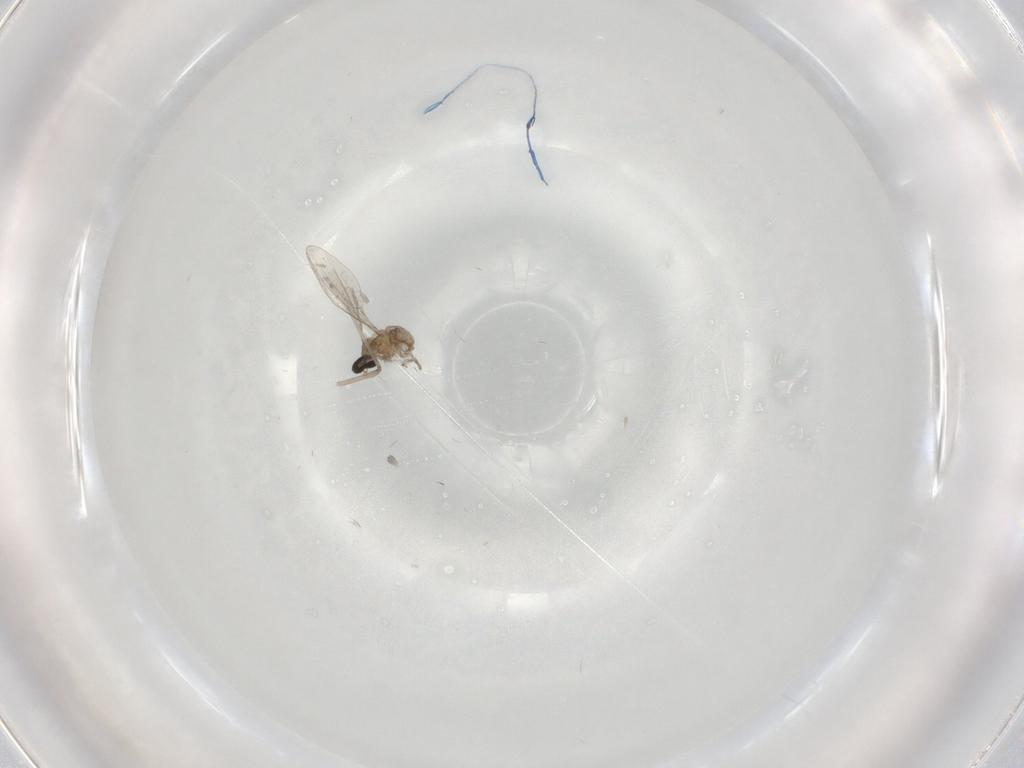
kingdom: Animalia
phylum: Arthropoda
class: Insecta
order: Diptera
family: Cecidomyiidae
